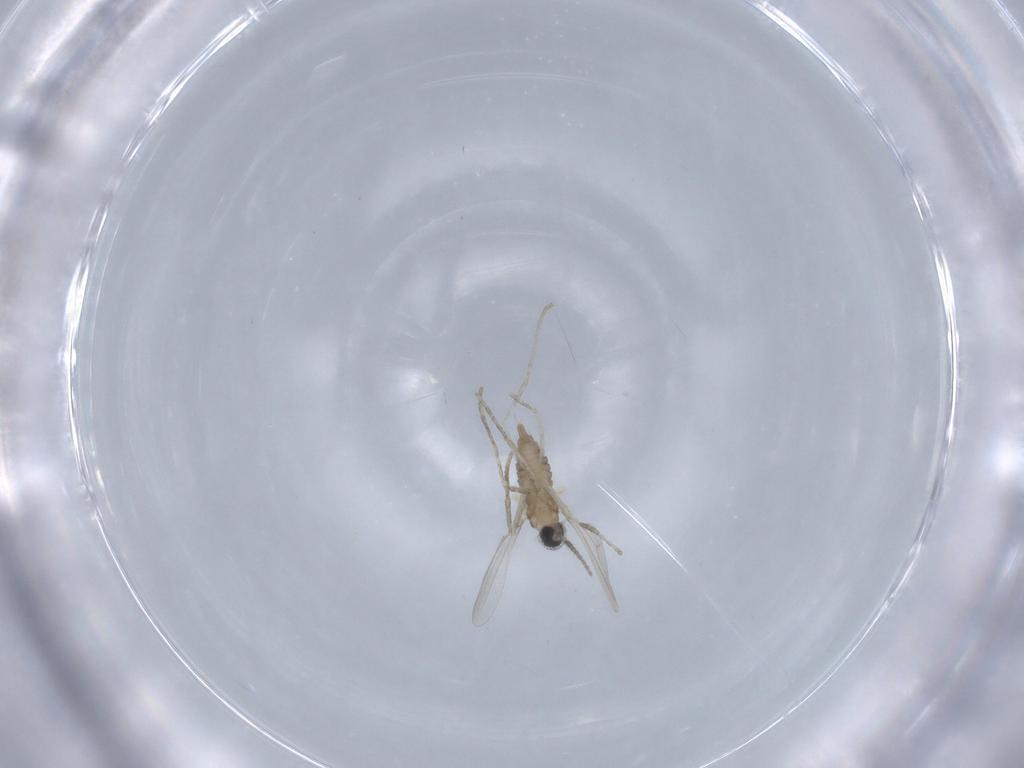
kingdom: Animalia
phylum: Arthropoda
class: Insecta
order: Diptera
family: Cecidomyiidae
